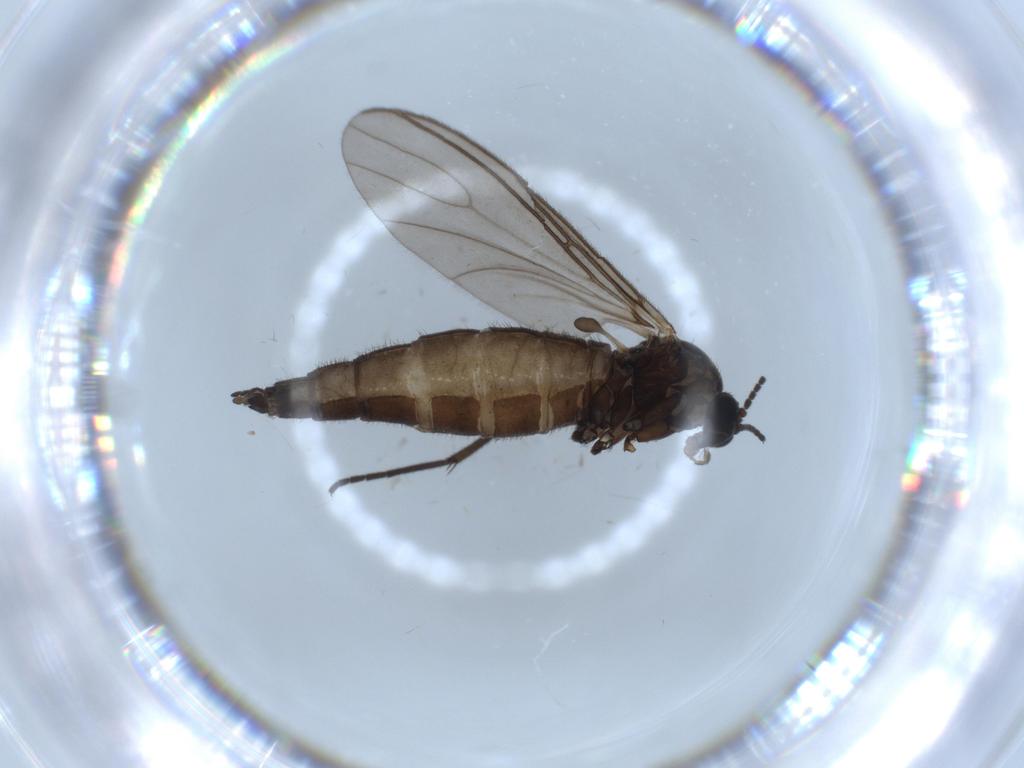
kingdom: Animalia
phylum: Arthropoda
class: Insecta
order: Diptera
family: Sciaridae
